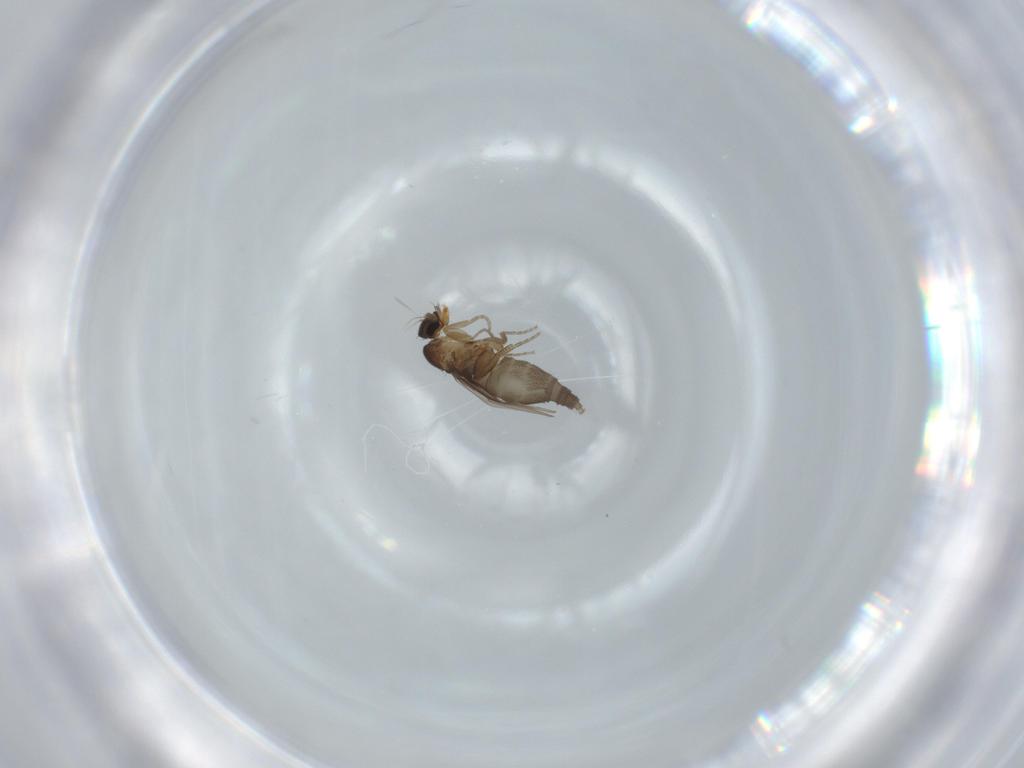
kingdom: Animalia
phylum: Arthropoda
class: Insecta
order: Diptera
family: Phoridae
